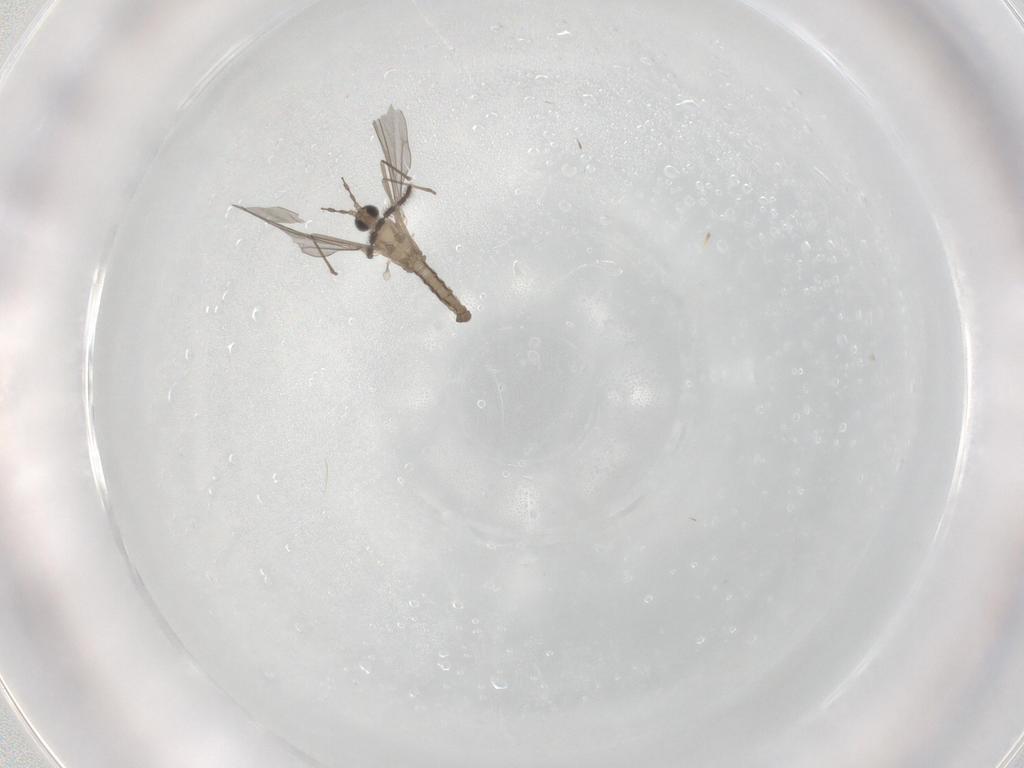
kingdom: Animalia
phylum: Arthropoda
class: Insecta
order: Diptera
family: Cecidomyiidae
